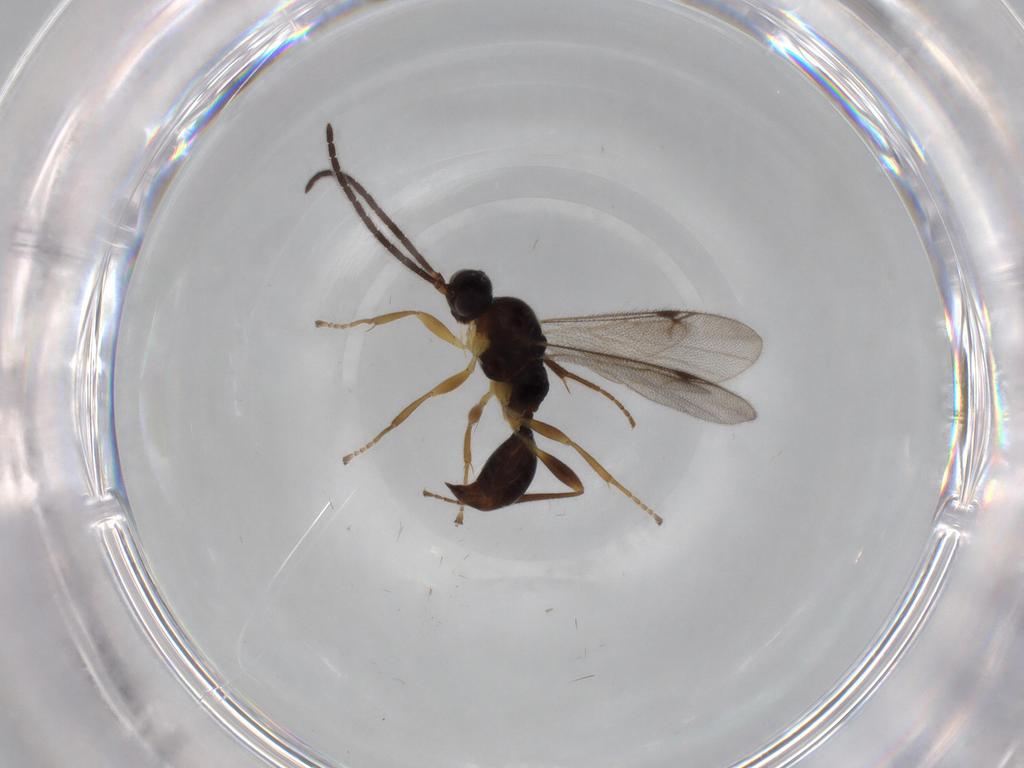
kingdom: Animalia
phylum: Arthropoda
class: Insecta
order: Hymenoptera
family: Proctotrupidae
